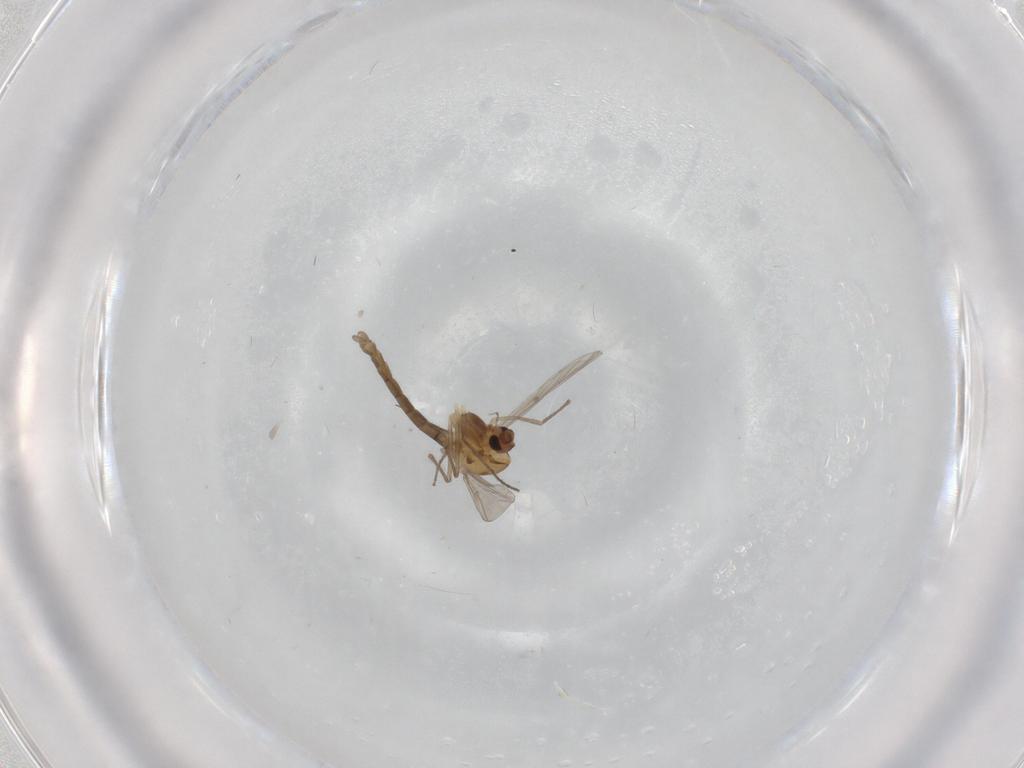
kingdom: Animalia
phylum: Arthropoda
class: Insecta
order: Diptera
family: Chironomidae
